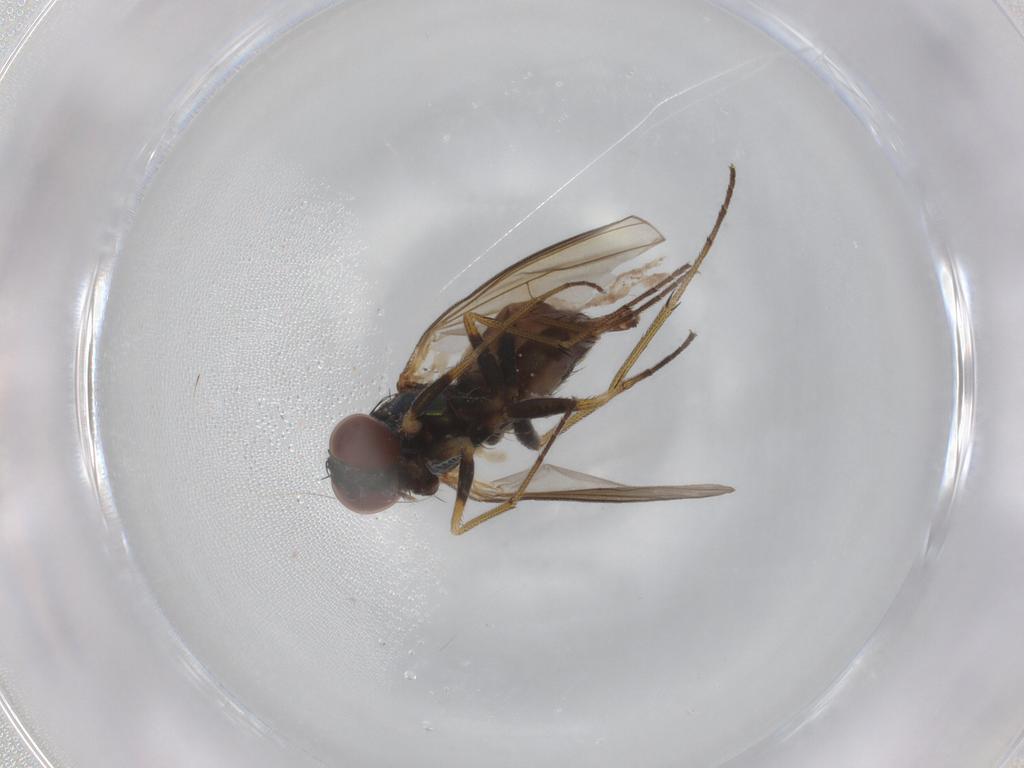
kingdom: Animalia
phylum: Arthropoda
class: Insecta
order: Diptera
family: Dolichopodidae
